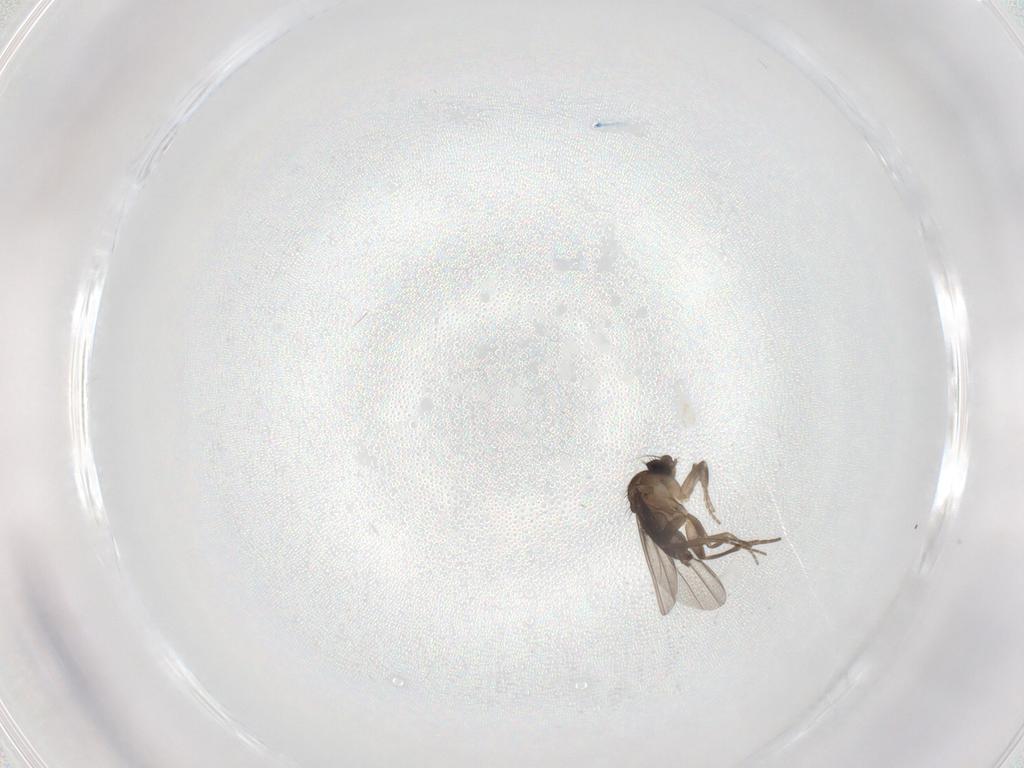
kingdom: Animalia
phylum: Arthropoda
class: Insecta
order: Diptera
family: Phoridae
